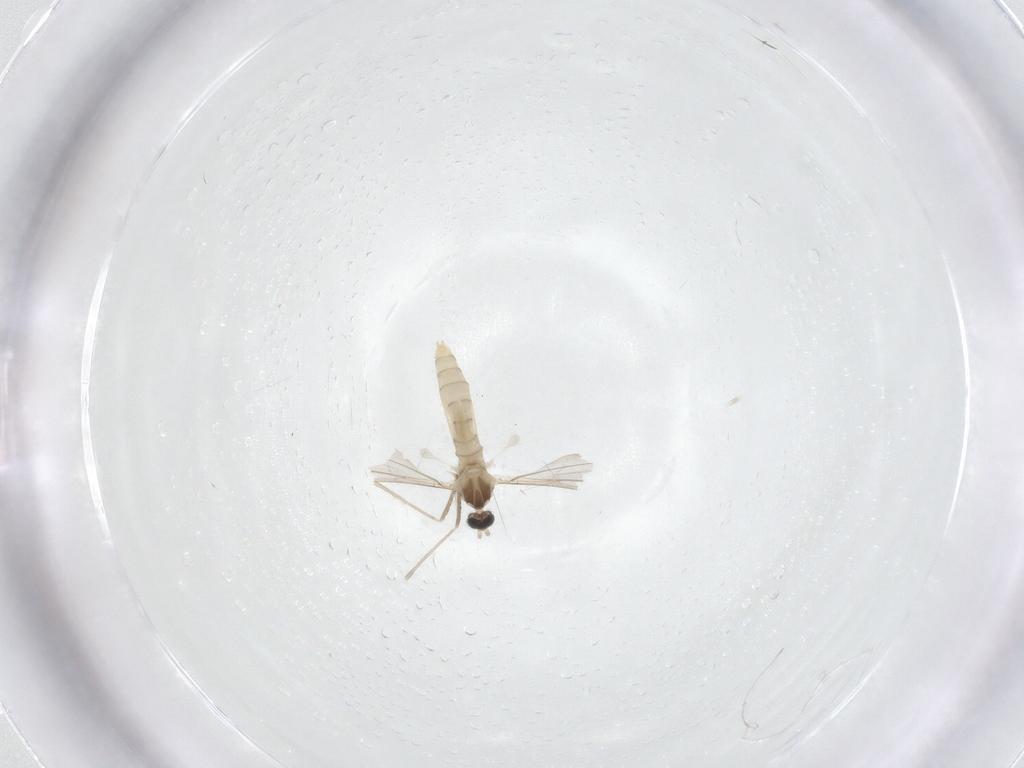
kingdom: Animalia
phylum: Arthropoda
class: Insecta
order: Diptera
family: Cecidomyiidae
